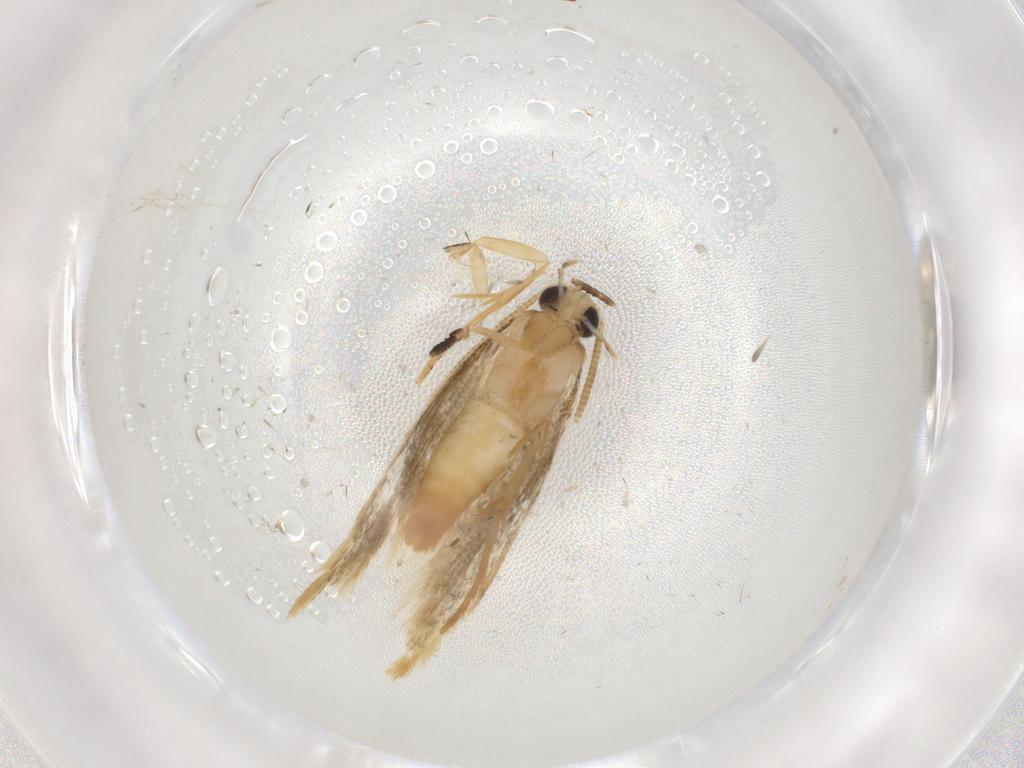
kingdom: Animalia
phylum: Arthropoda
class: Insecta
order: Lepidoptera
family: Tineidae
